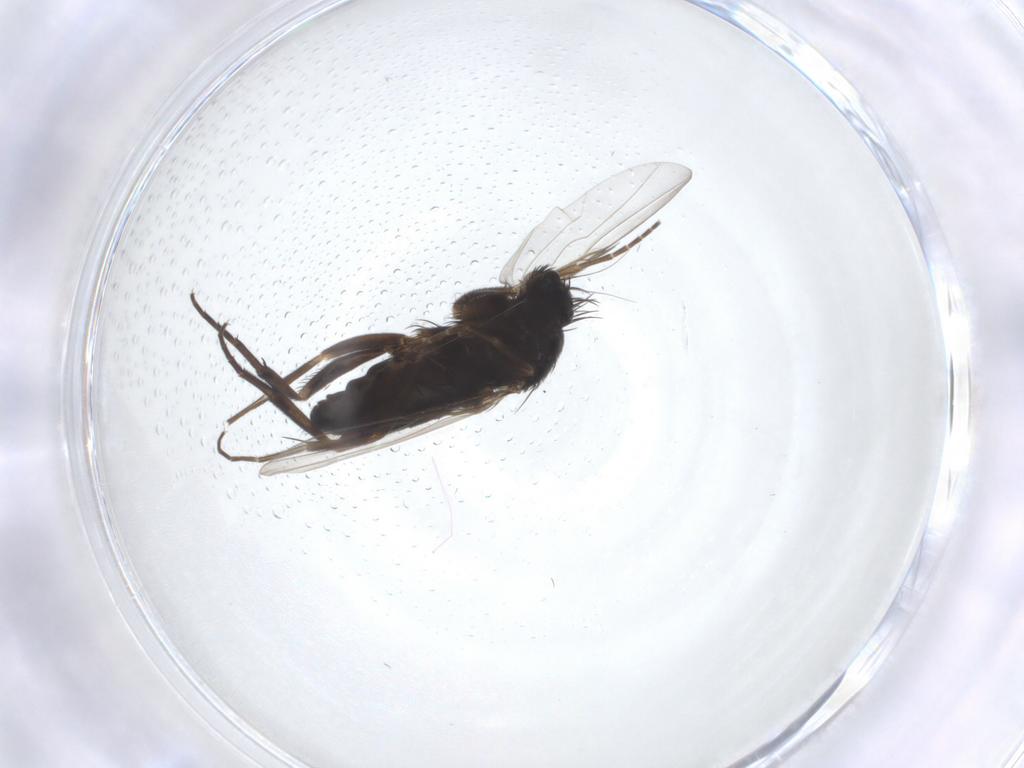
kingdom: Animalia
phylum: Arthropoda
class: Insecta
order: Diptera
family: Phoridae
